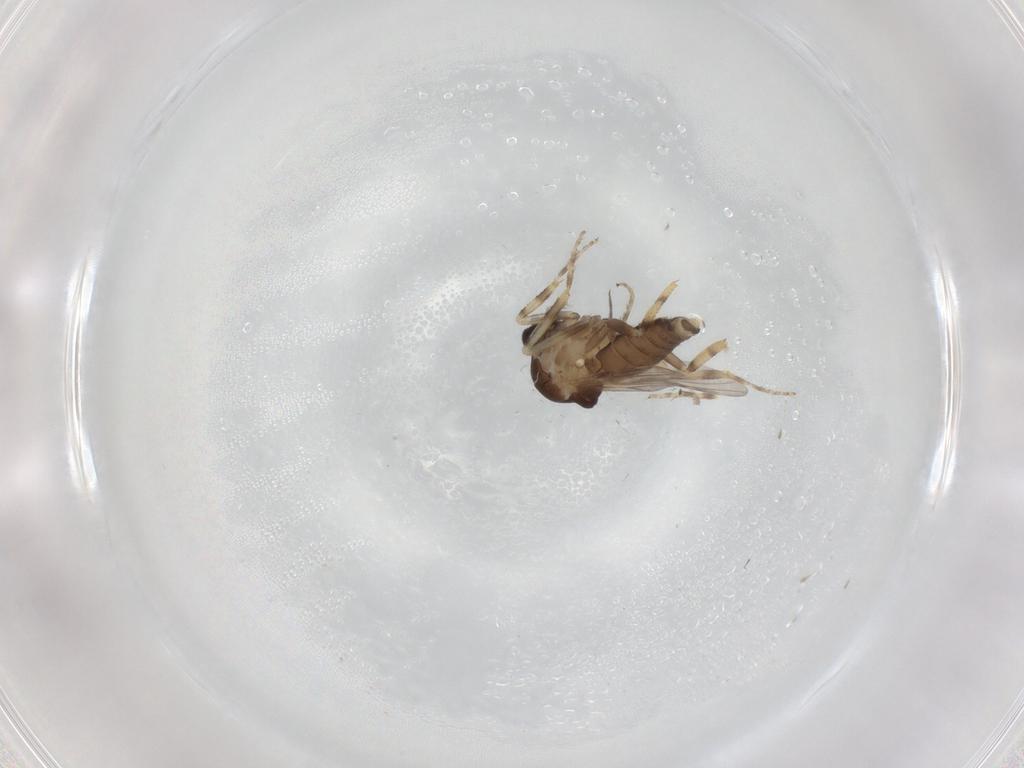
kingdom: Animalia
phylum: Arthropoda
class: Insecta
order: Diptera
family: Ceratopogonidae
